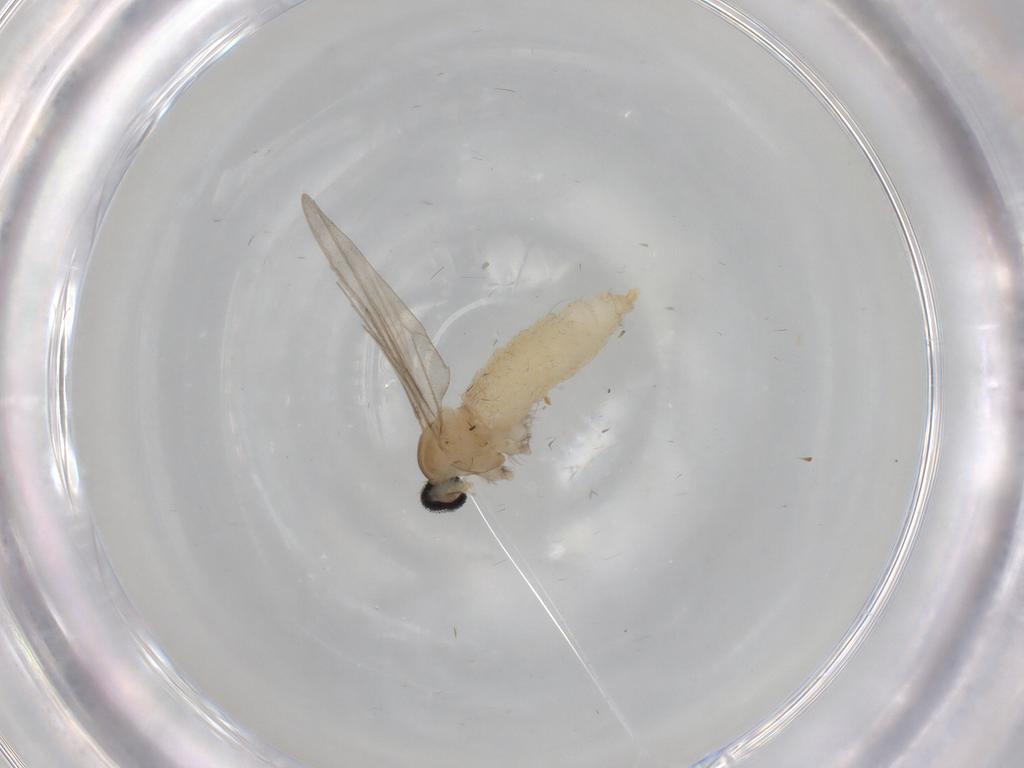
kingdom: Animalia
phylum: Arthropoda
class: Insecta
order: Diptera
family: Cecidomyiidae
